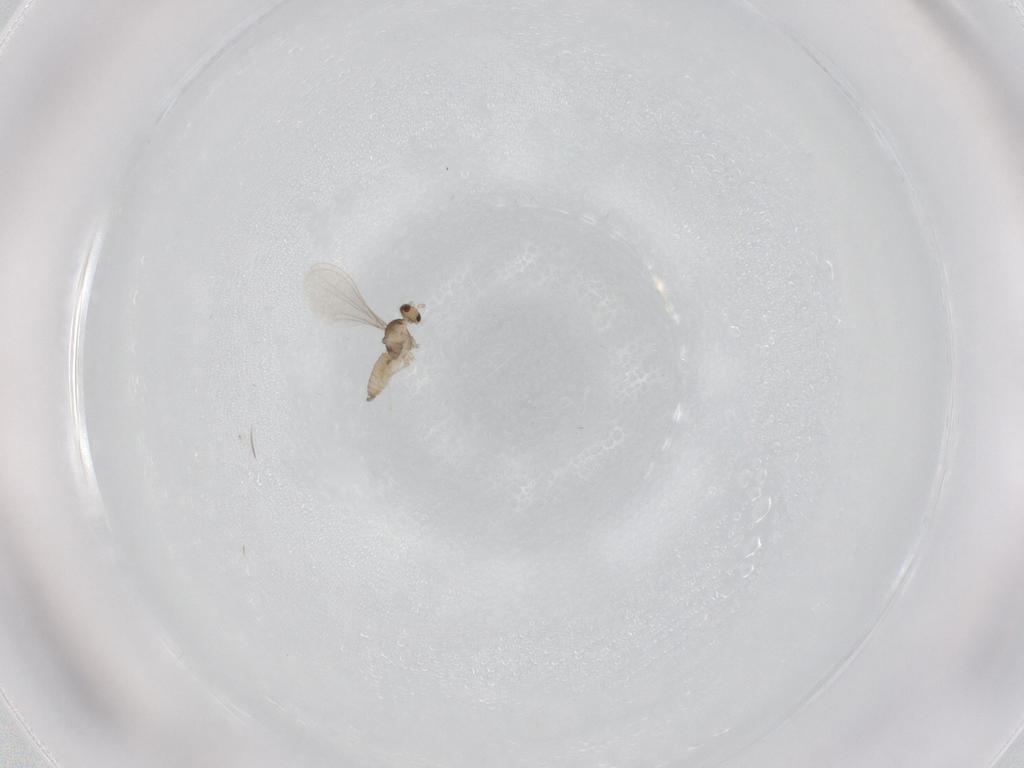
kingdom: Animalia
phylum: Arthropoda
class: Insecta
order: Diptera
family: Cecidomyiidae
